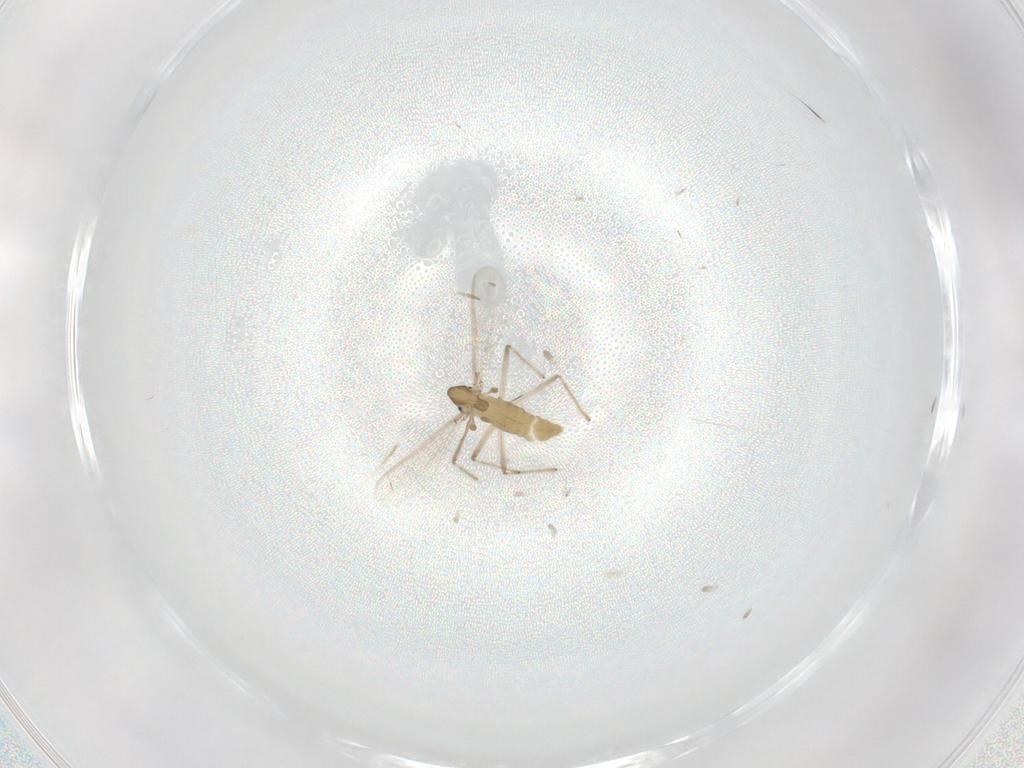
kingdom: Animalia
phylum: Arthropoda
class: Insecta
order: Diptera
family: Chironomidae
